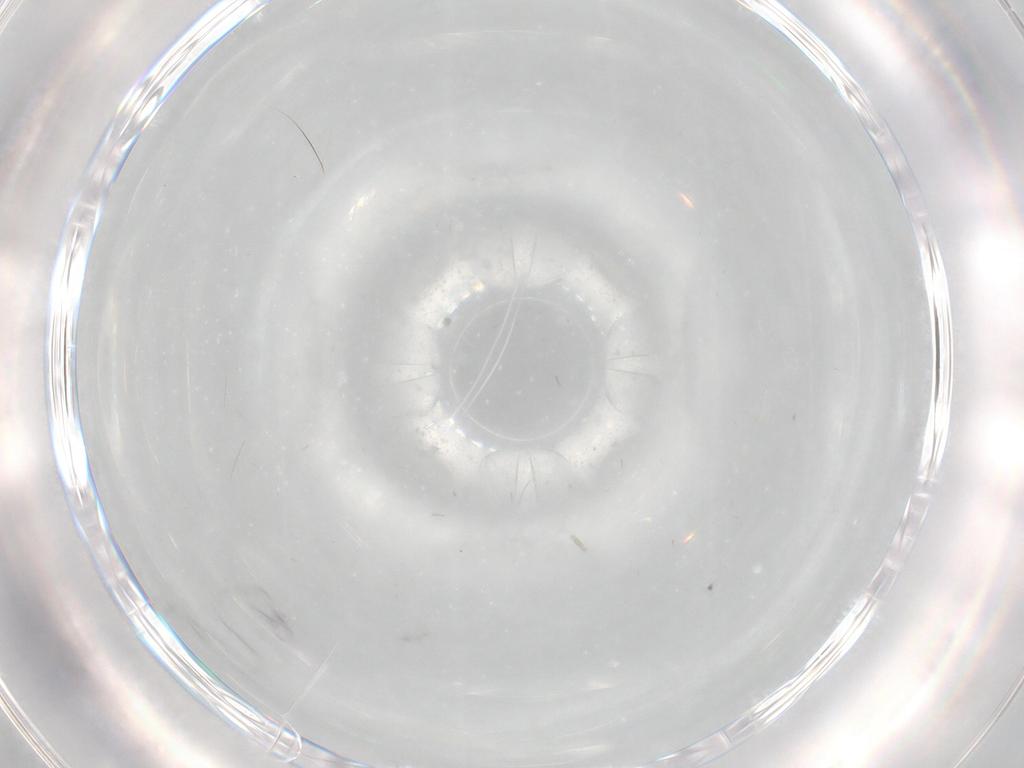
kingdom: Animalia
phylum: Arthropoda
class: Insecta
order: Diptera
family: Cecidomyiidae
